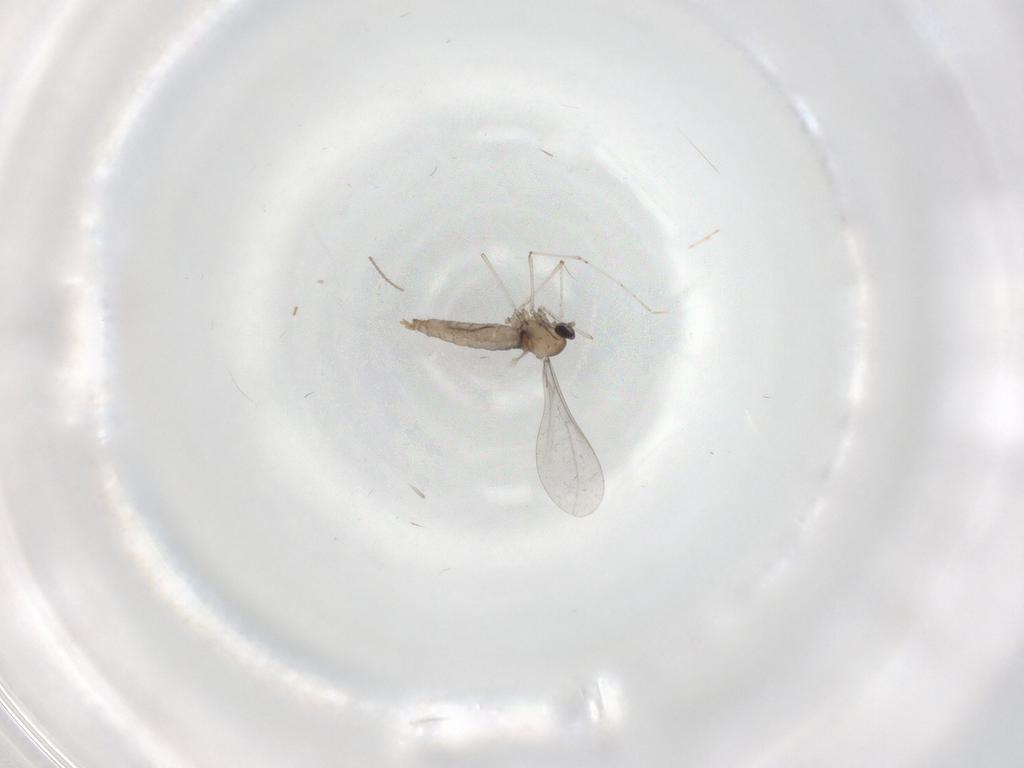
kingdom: Animalia
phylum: Arthropoda
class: Insecta
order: Diptera
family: Cecidomyiidae
